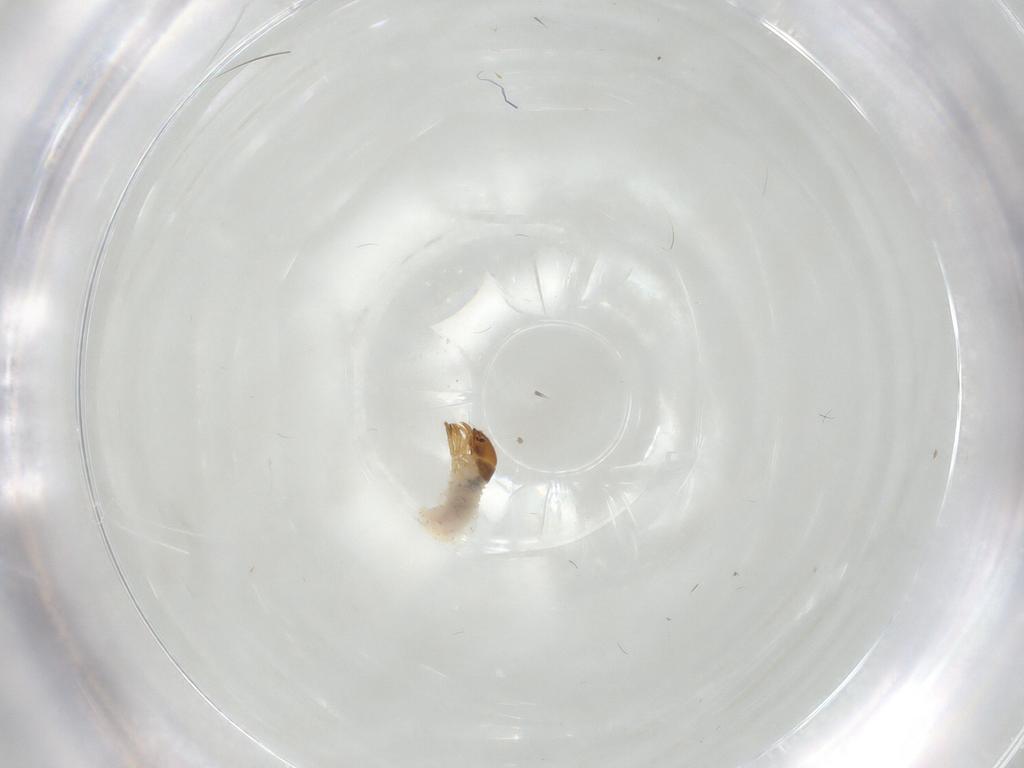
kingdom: Animalia
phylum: Arthropoda
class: Insecta
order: Coleoptera
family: Chrysomelidae
